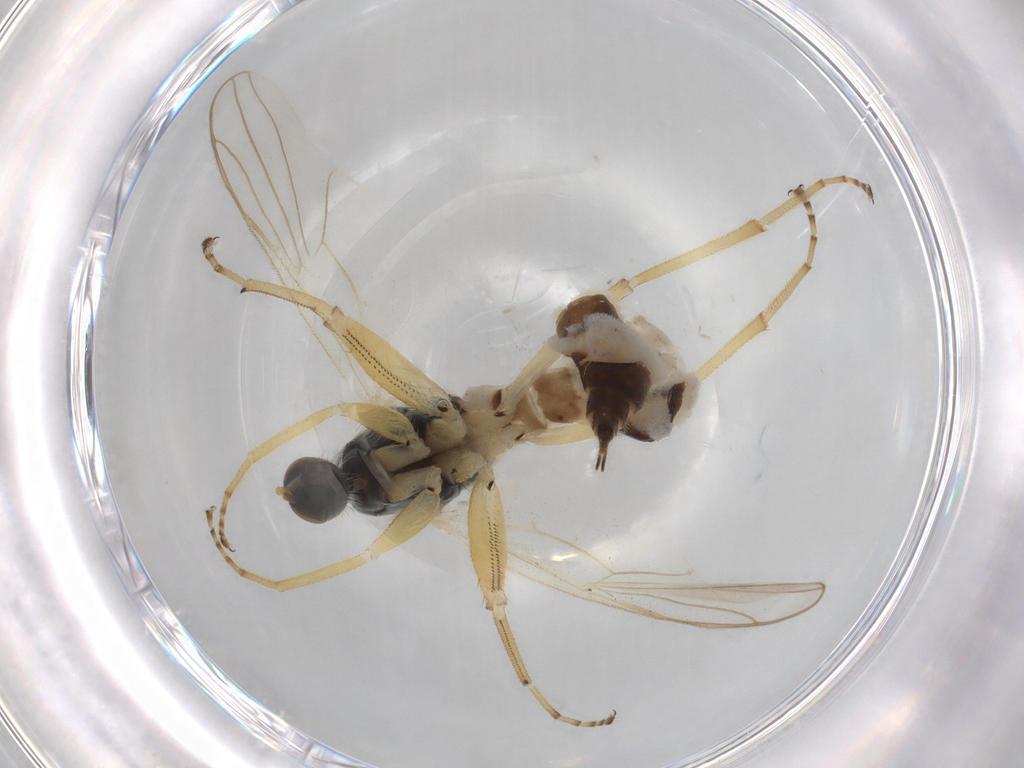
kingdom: Animalia
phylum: Arthropoda
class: Insecta
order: Diptera
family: Hybotidae
